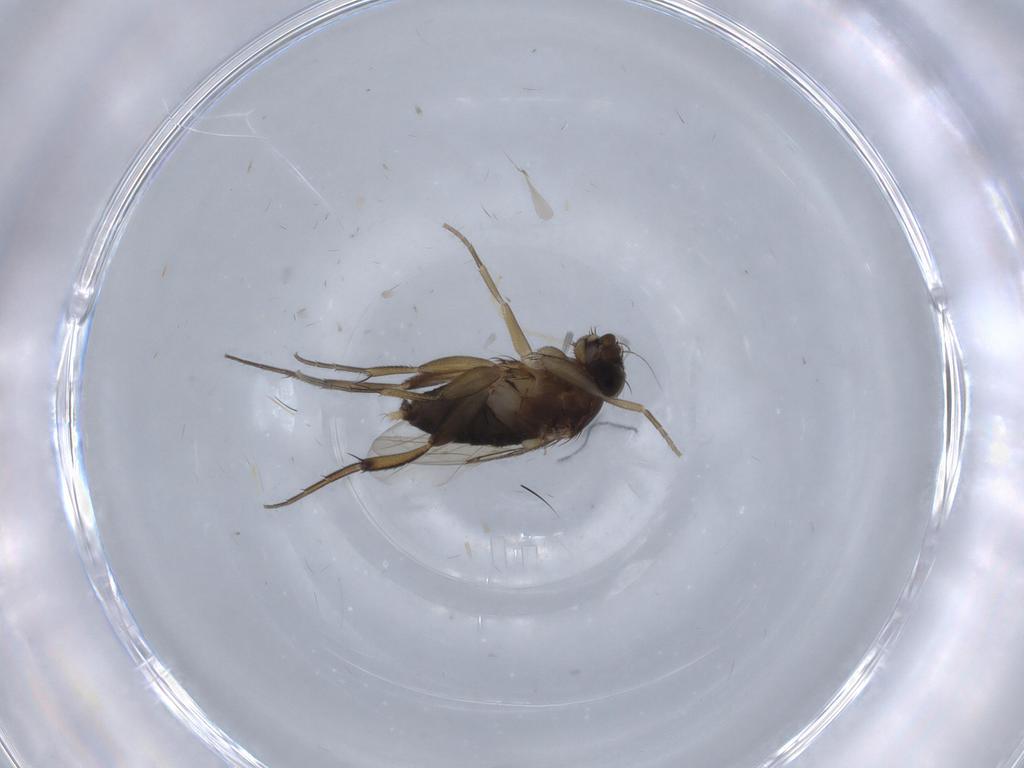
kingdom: Animalia
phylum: Arthropoda
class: Insecta
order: Diptera
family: Phoridae
